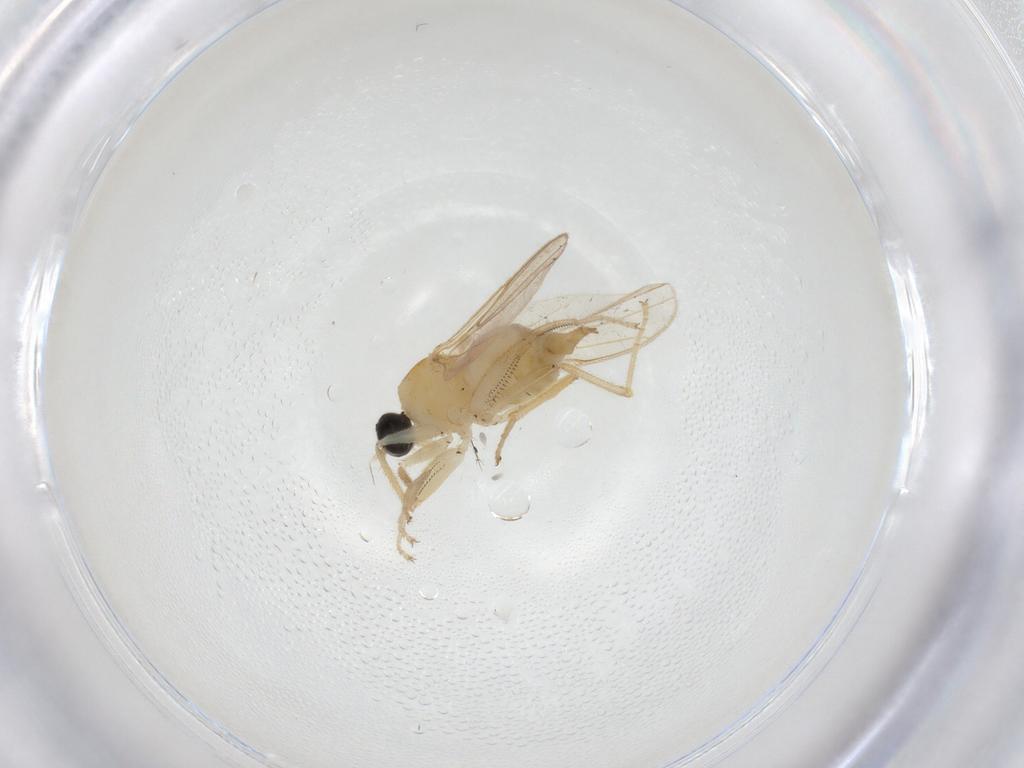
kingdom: Animalia
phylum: Arthropoda
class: Insecta
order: Diptera
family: Hybotidae
